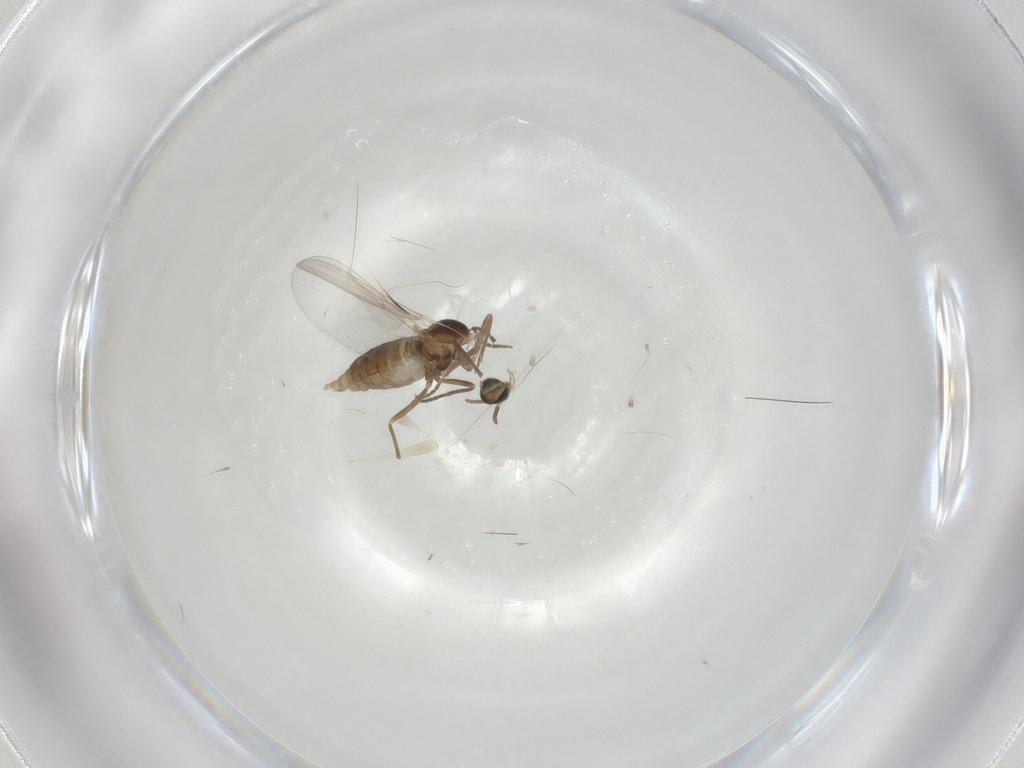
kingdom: Animalia
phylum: Arthropoda
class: Insecta
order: Diptera
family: Cecidomyiidae
